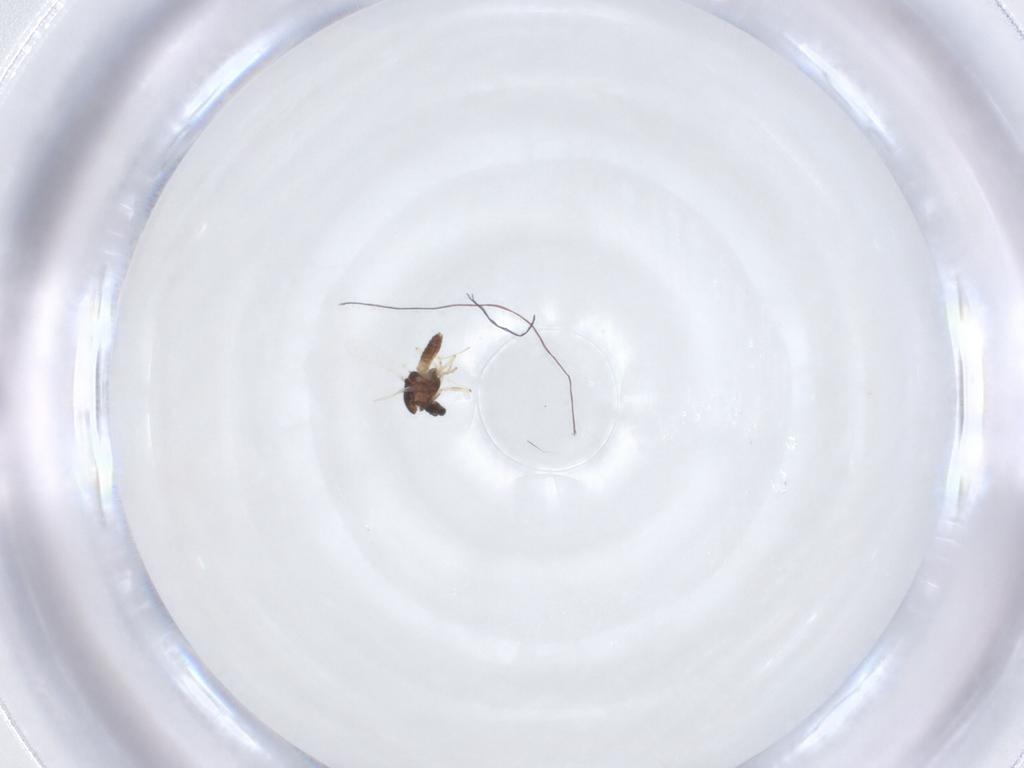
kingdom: Animalia
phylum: Arthropoda
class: Insecta
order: Diptera
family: Chironomidae
